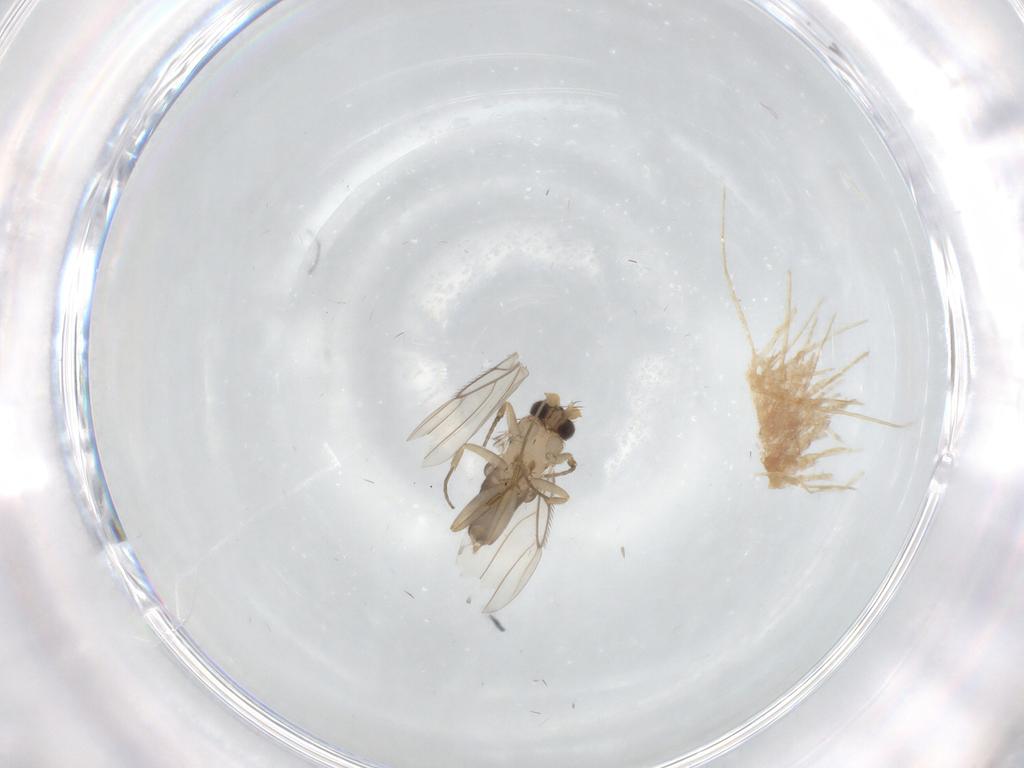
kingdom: Animalia
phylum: Arthropoda
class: Insecta
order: Diptera
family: Phoridae
